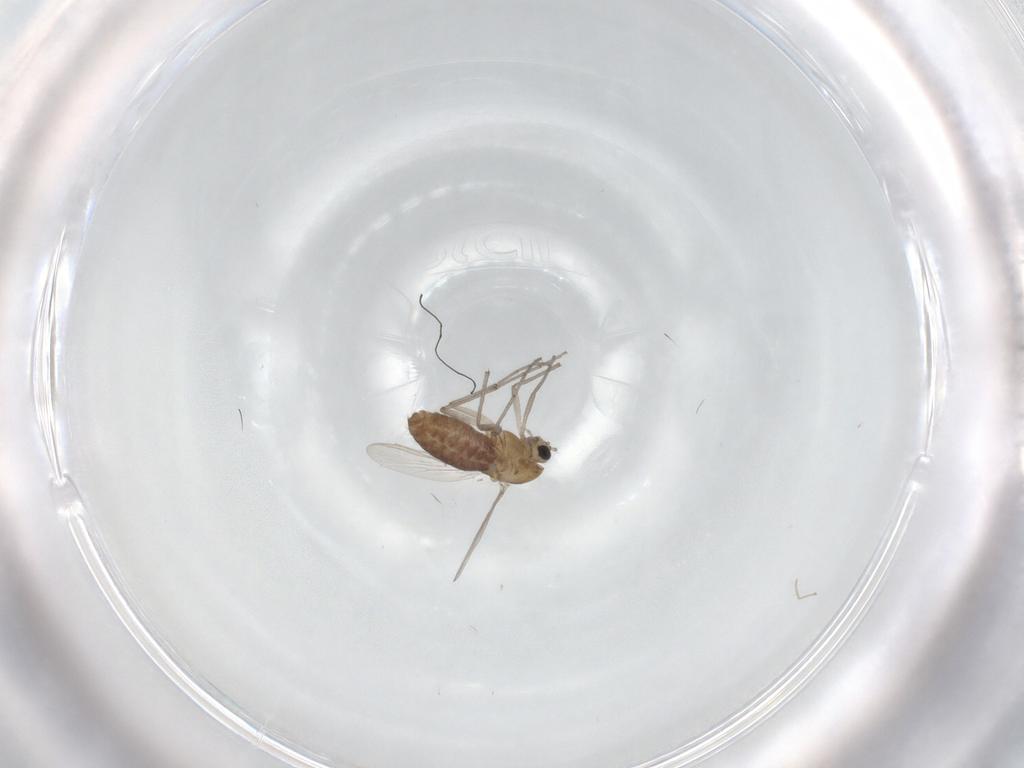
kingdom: Animalia
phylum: Arthropoda
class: Insecta
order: Diptera
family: Chironomidae
